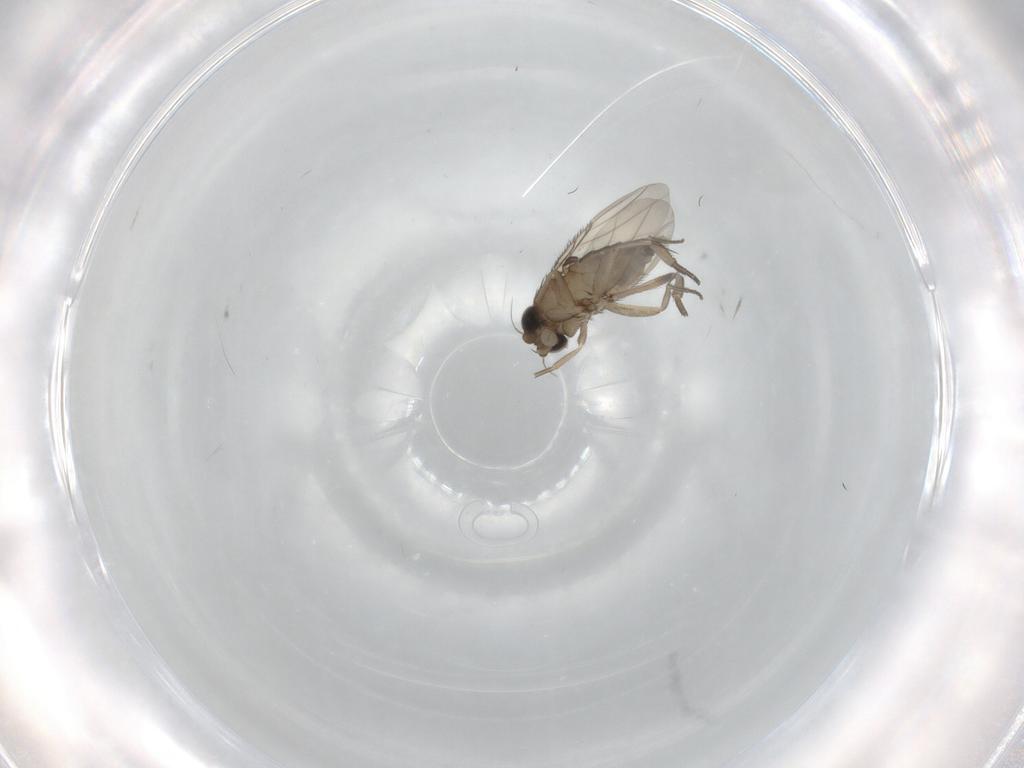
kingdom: Animalia
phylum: Arthropoda
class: Insecta
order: Diptera
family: Phoridae
